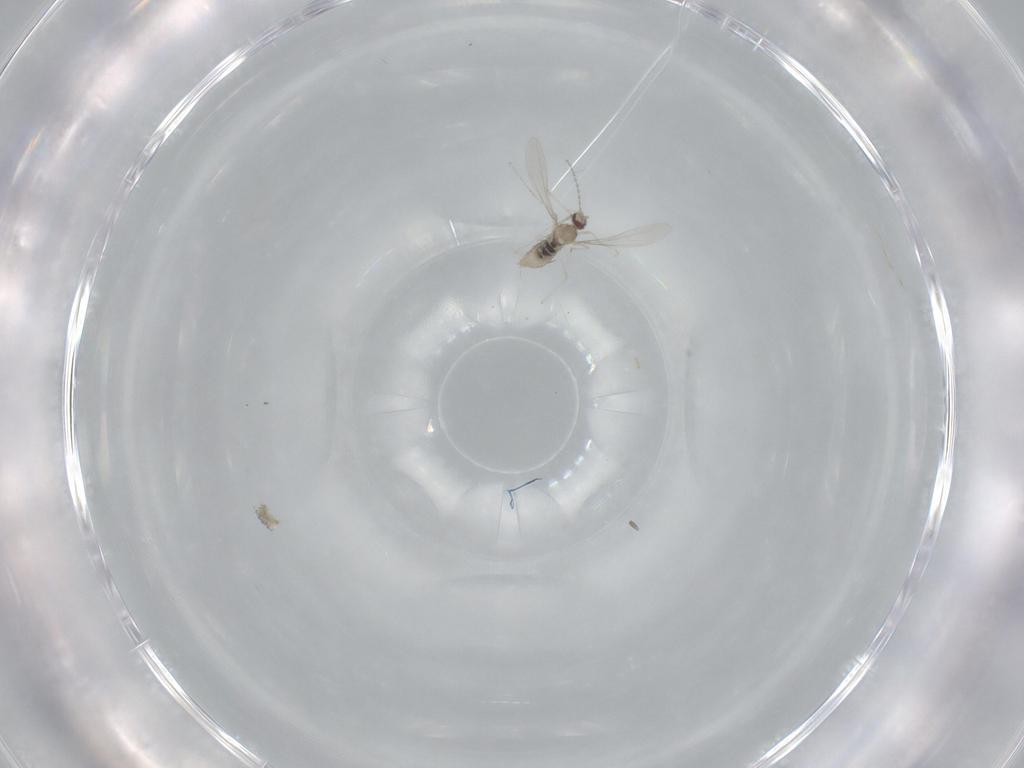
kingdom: Animalia
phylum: Arthropoda
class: Insecta
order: Diptera
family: Cecidomyiidae
